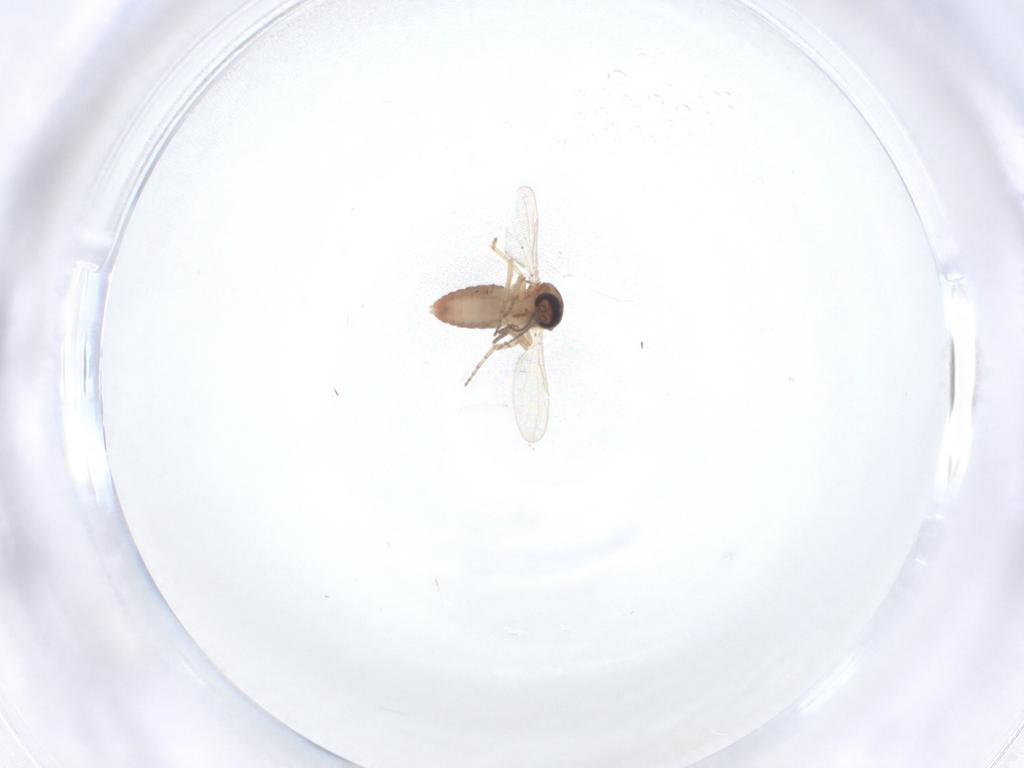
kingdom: Animalia
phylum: Arthropoda
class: Insecta
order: Diptera
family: Ceratopogonidae
